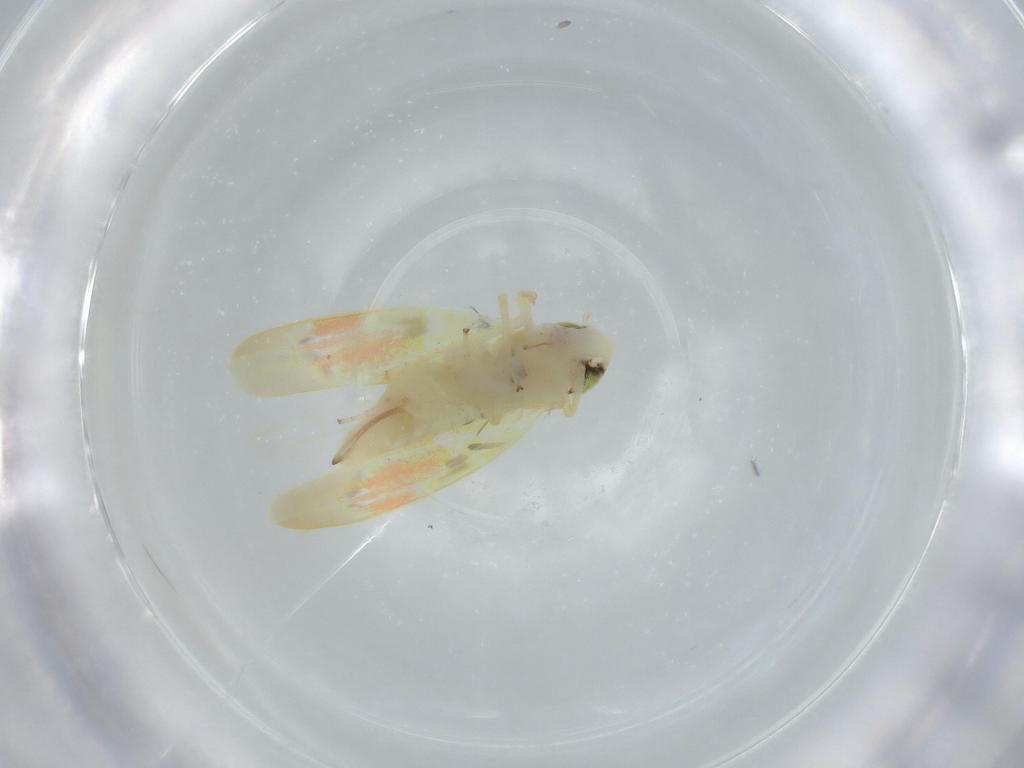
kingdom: Animalia
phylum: Arthropoda
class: Insecta
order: Hemiptera
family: Cicadellidae
